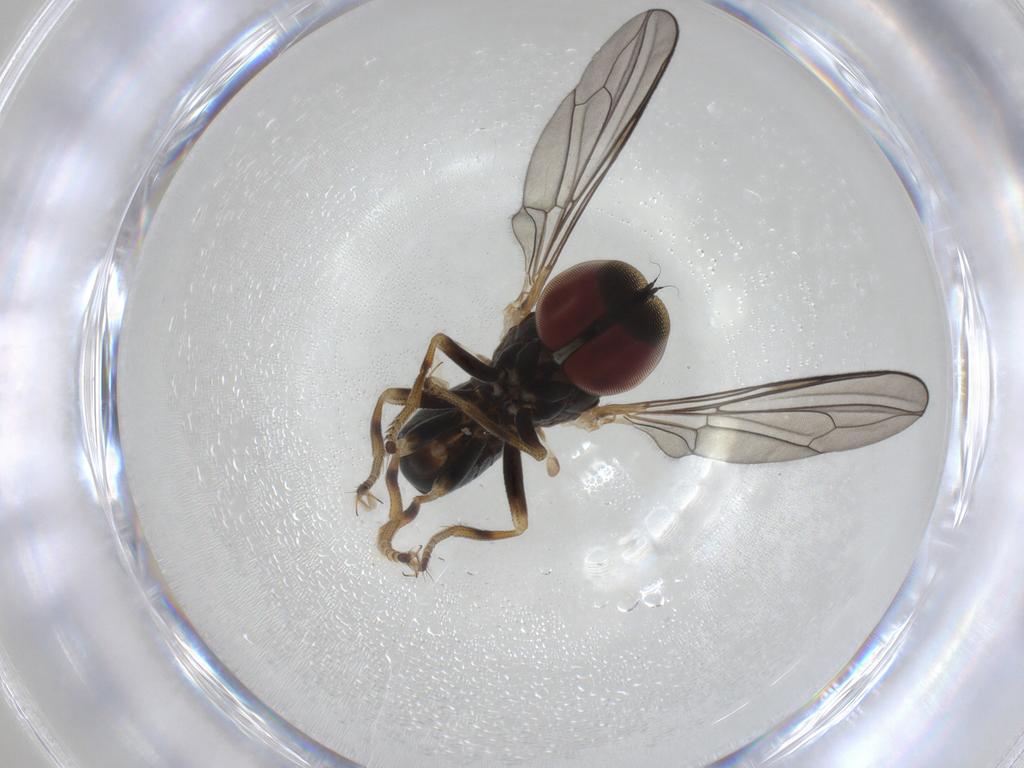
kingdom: Animalia
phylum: Arthropoda
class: Insecta
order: Diptera
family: Pipunculidae
